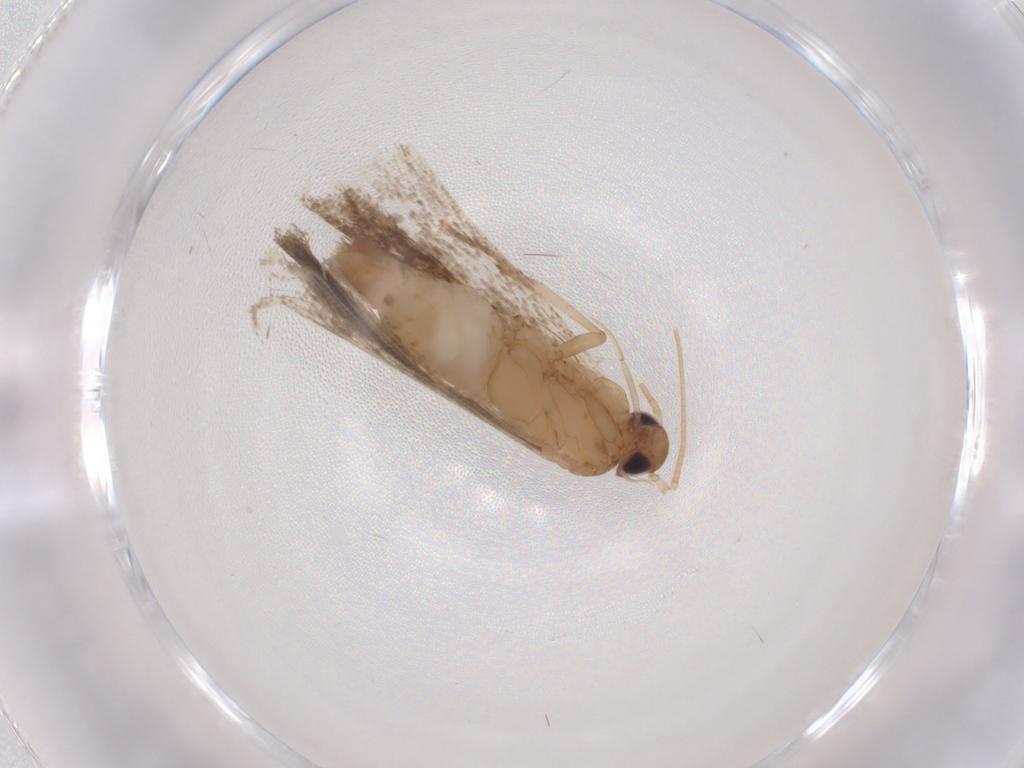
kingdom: Animalia
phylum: Arthropoda
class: Insecta
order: Lepidoptera
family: Gelechiidae
